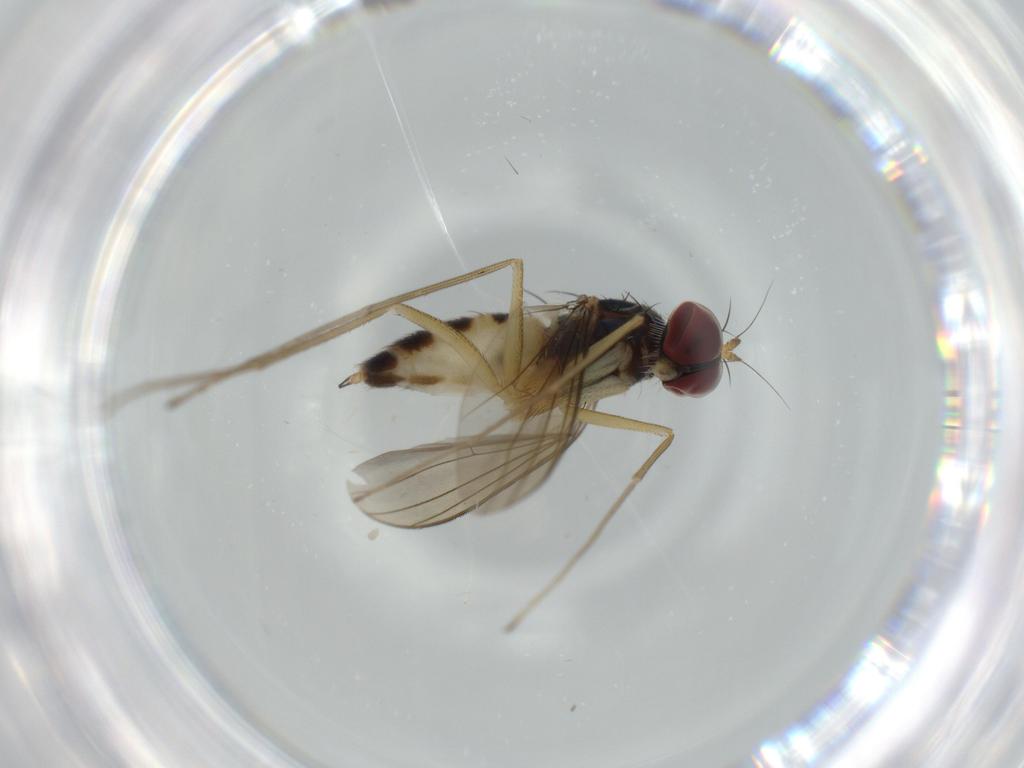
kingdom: Animalia
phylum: Arthropoda
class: Insecta
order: Diptera
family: Dolichopodidae
